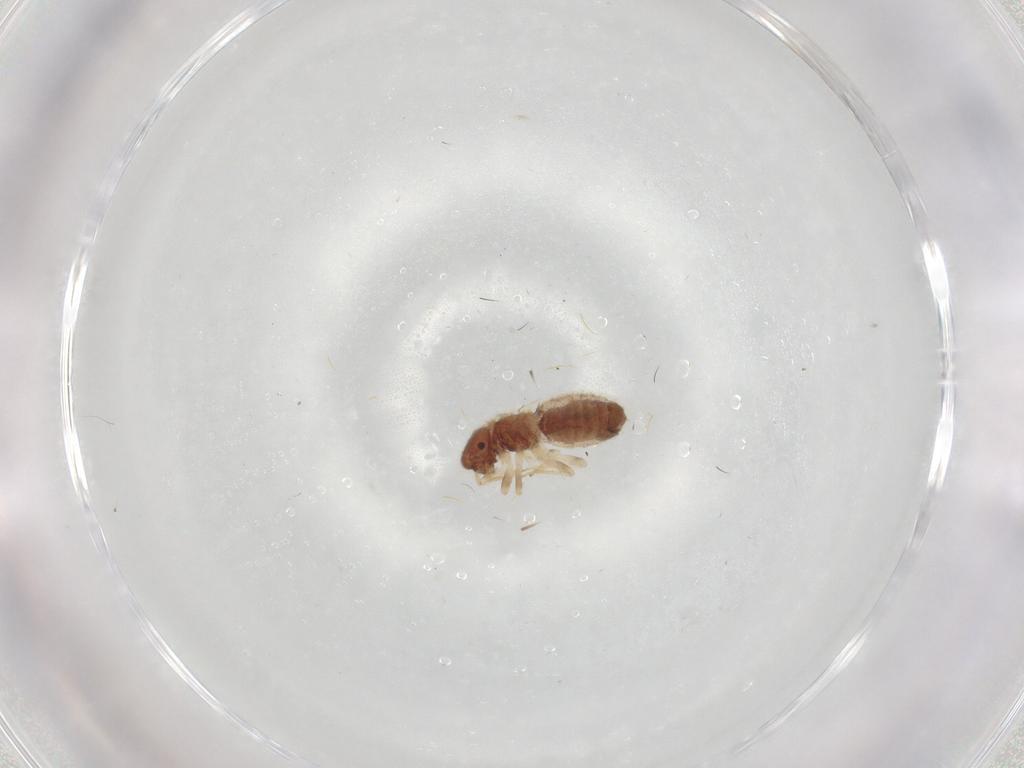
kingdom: Animalia
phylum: Arthropoda
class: Insecta
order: Psocodea
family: Archipsocidae
